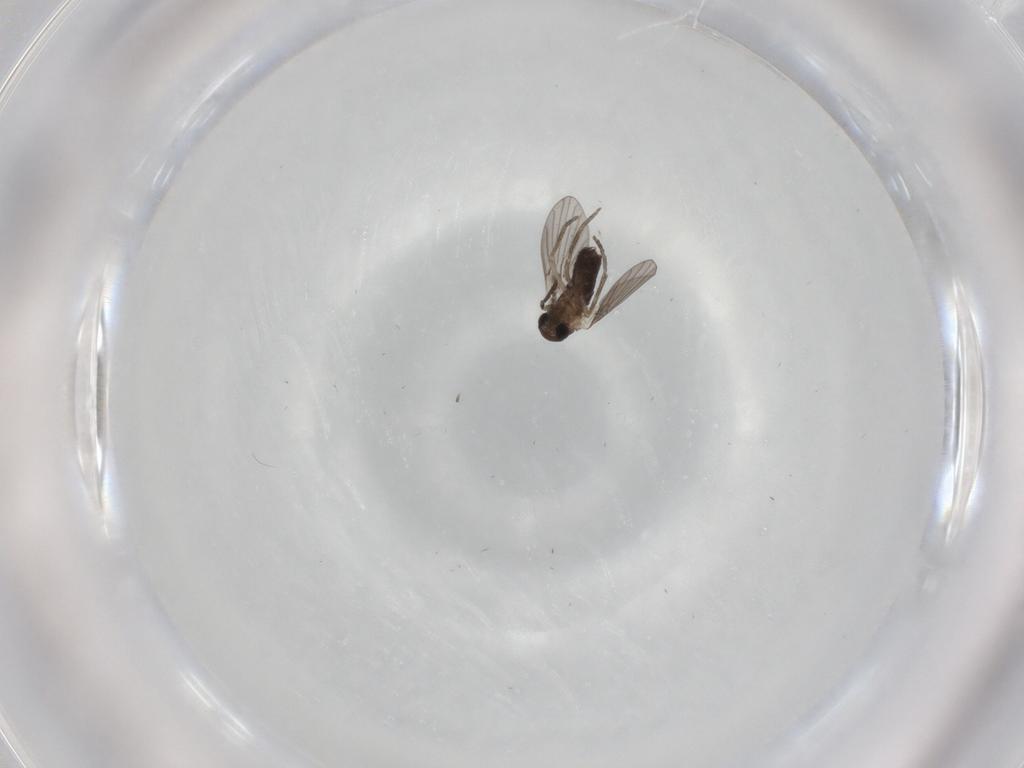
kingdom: Animalia
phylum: Arthropoda
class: Insecta
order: Diptera
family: Cecidomyiidae
